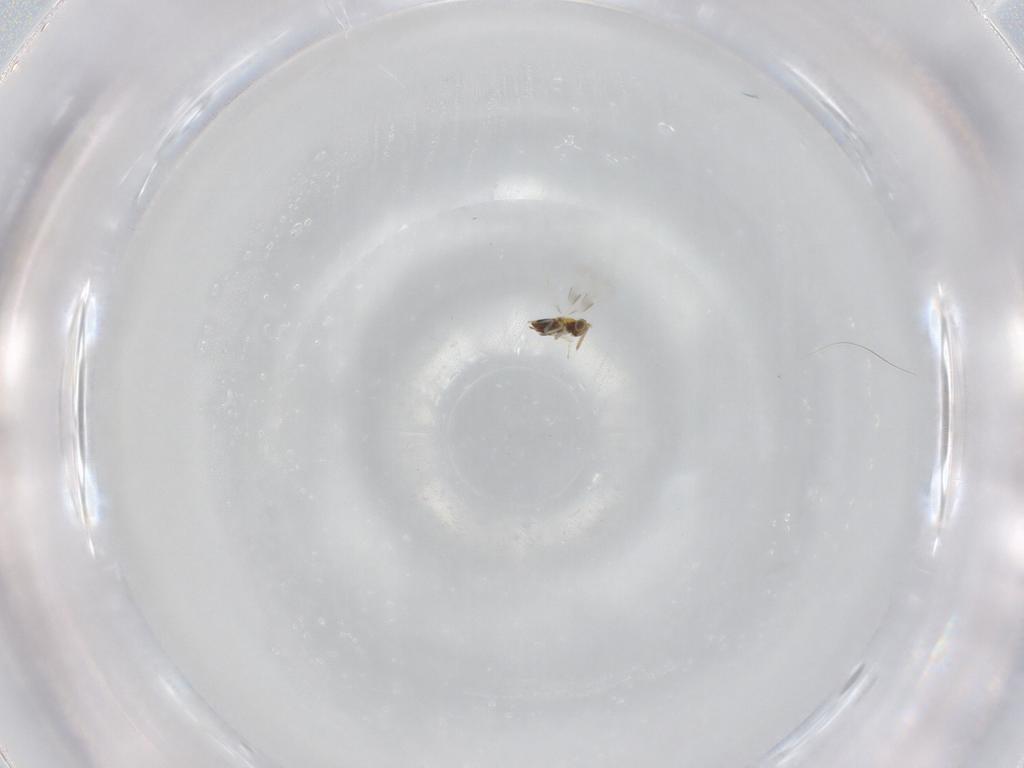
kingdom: Animalia
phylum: Arthropoda
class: Insecta
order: Hymenoptera
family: Aphelinidae
